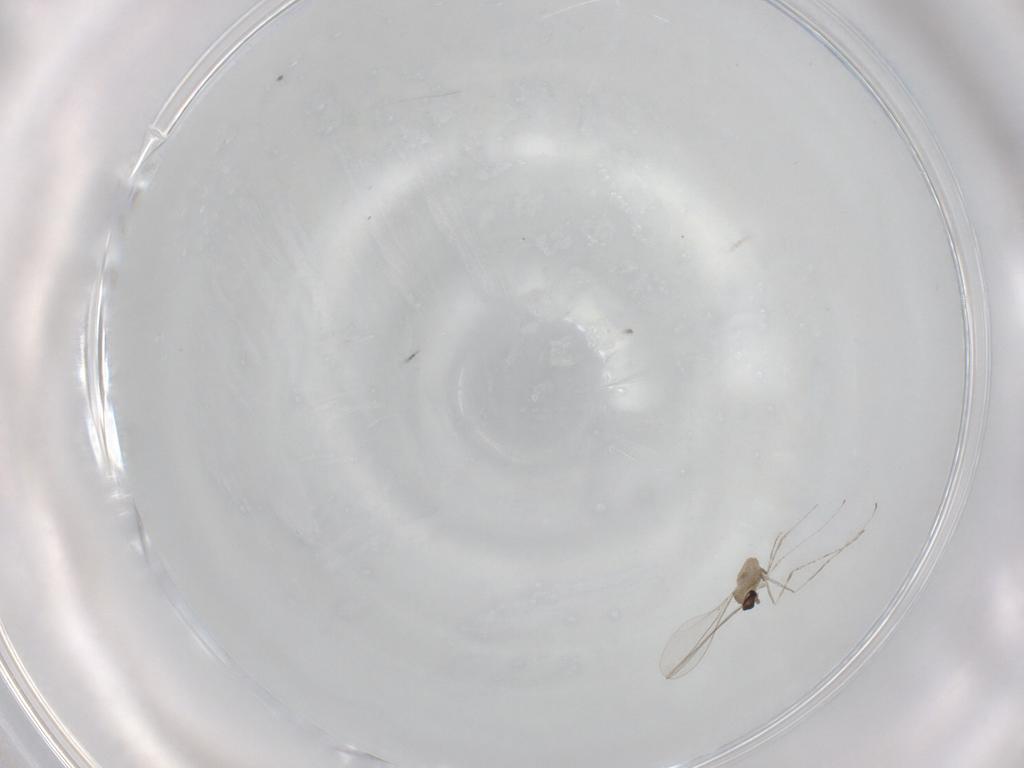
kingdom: Animalia
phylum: Arthropoda
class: Insecta
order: Diptera
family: Cecidomyiidae
